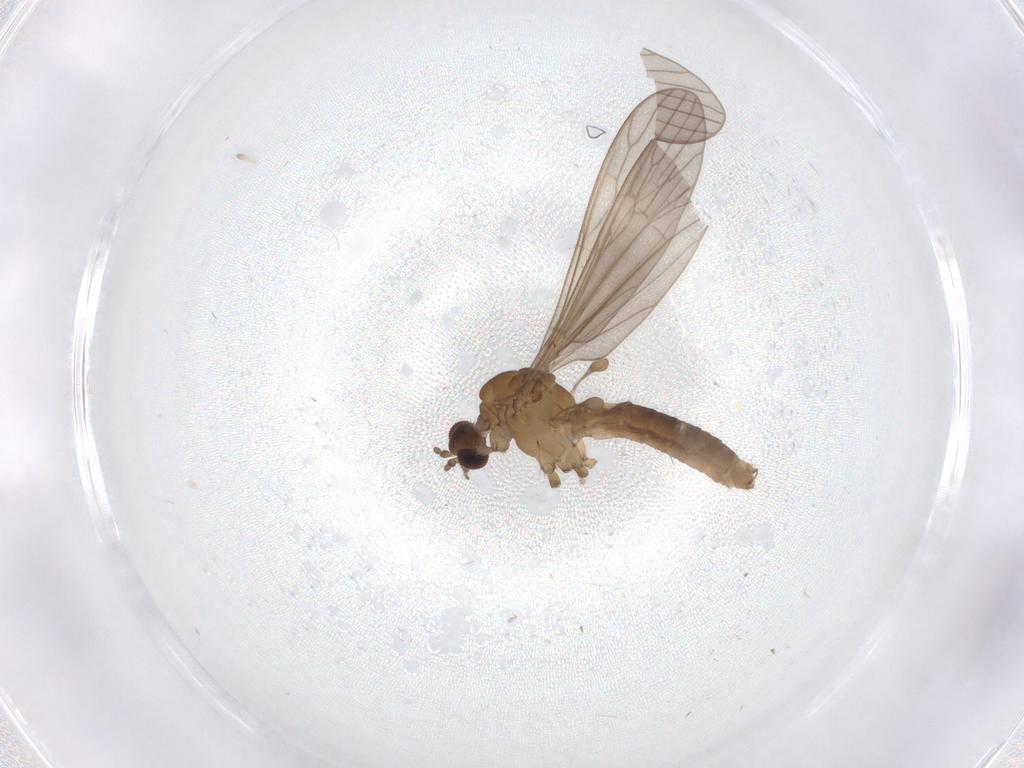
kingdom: Animalia
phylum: Arthropoda
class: Insecta
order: Diptera
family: Limoniidae
